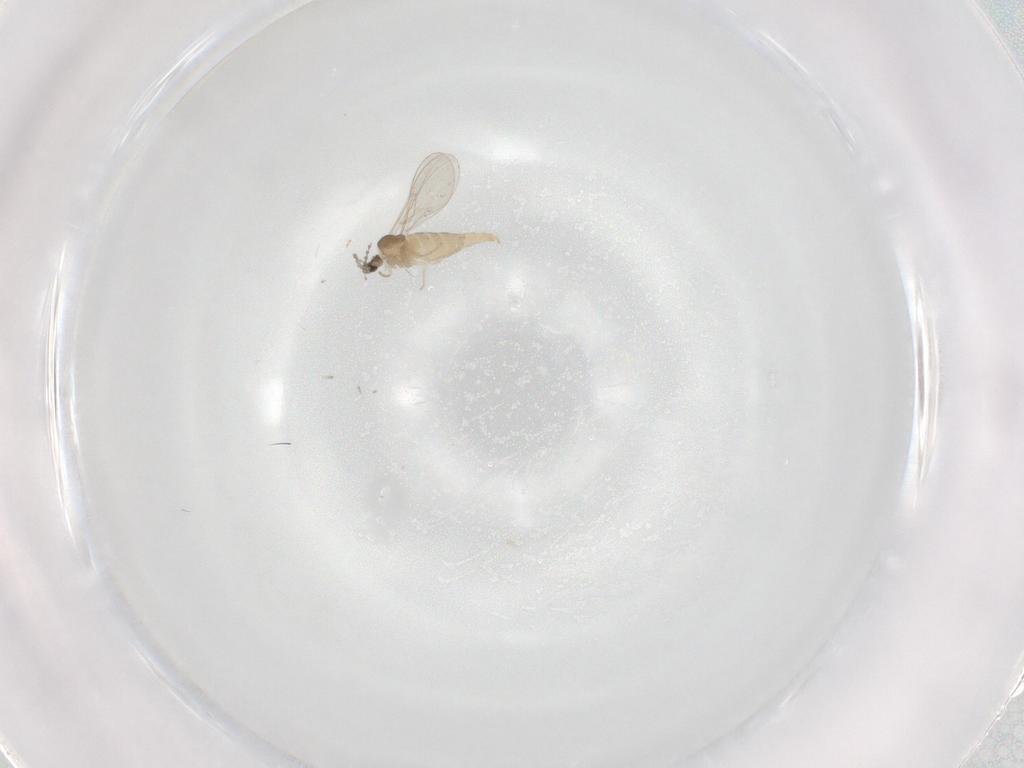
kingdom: Animalia
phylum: Arthropoda
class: Insecta
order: Diptera
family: Cecidomyiidae
